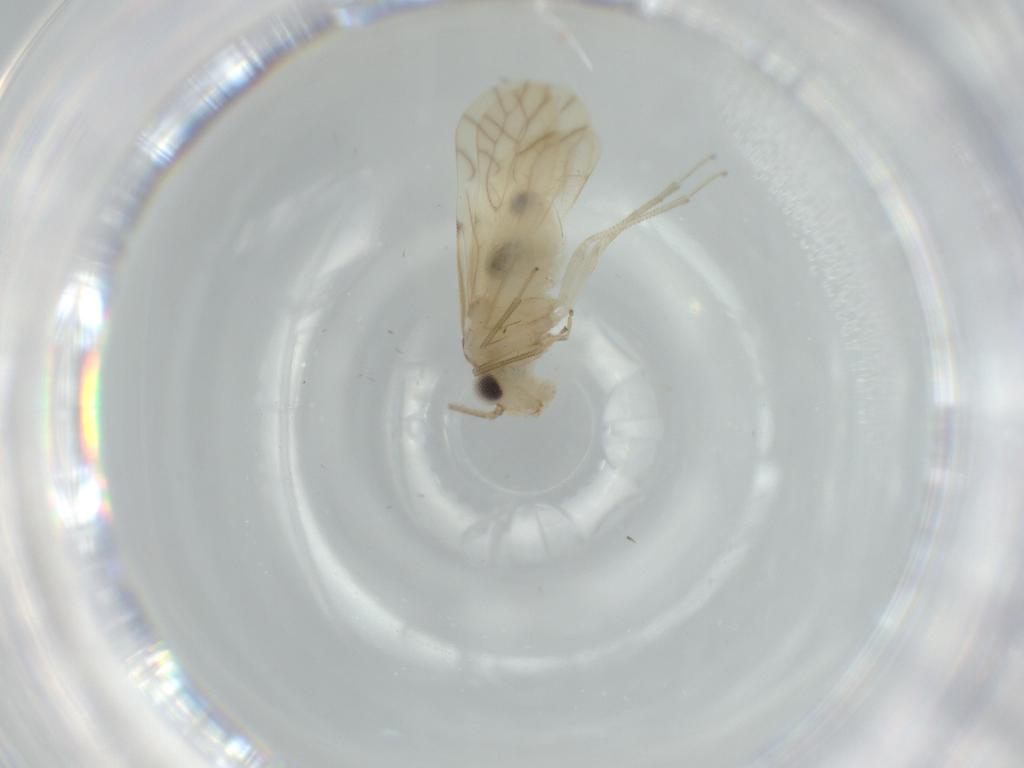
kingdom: Animalia
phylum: Arthropoda
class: Insecta
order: Psocodea
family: Caeciliusidae
